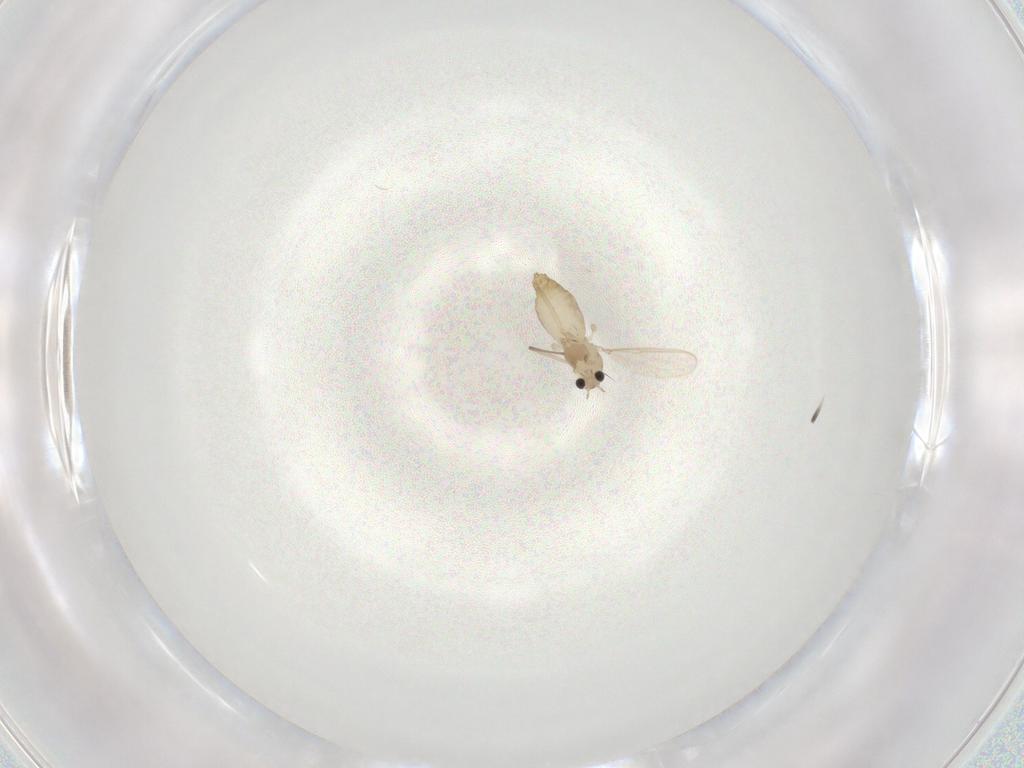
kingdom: Animalia
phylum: Arthropoda
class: Insecta
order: Diptera
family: Chironomidae
